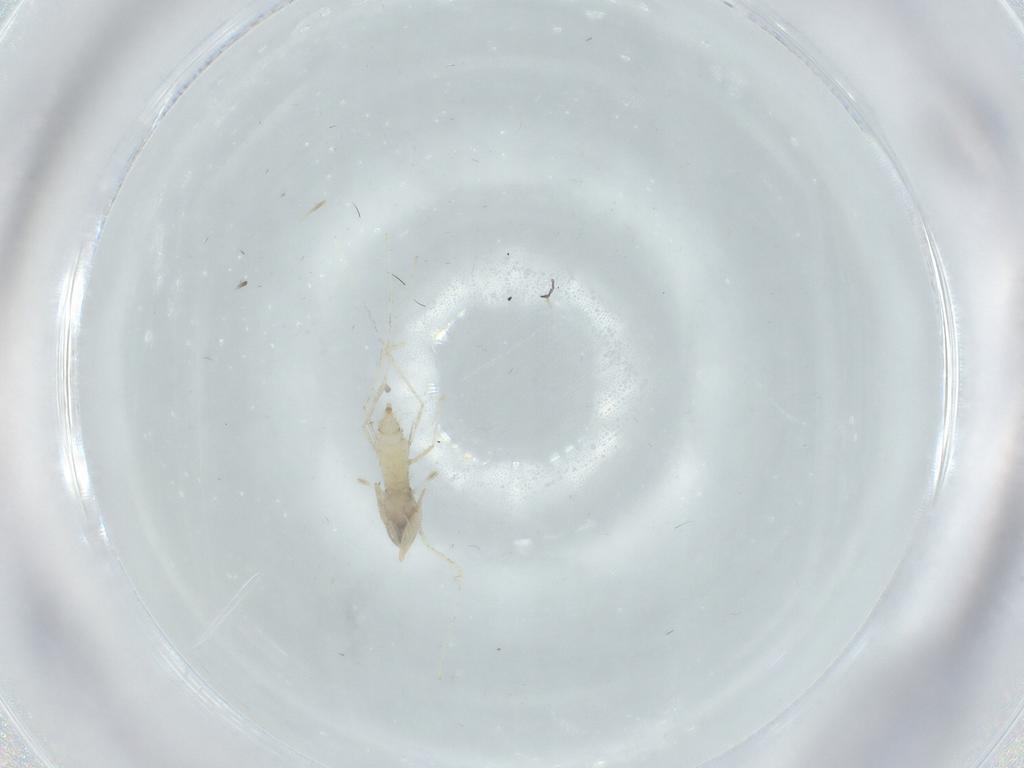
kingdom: Animalia
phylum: Arthropoda
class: Insecta
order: Diptera
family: Cecidomyiidae
